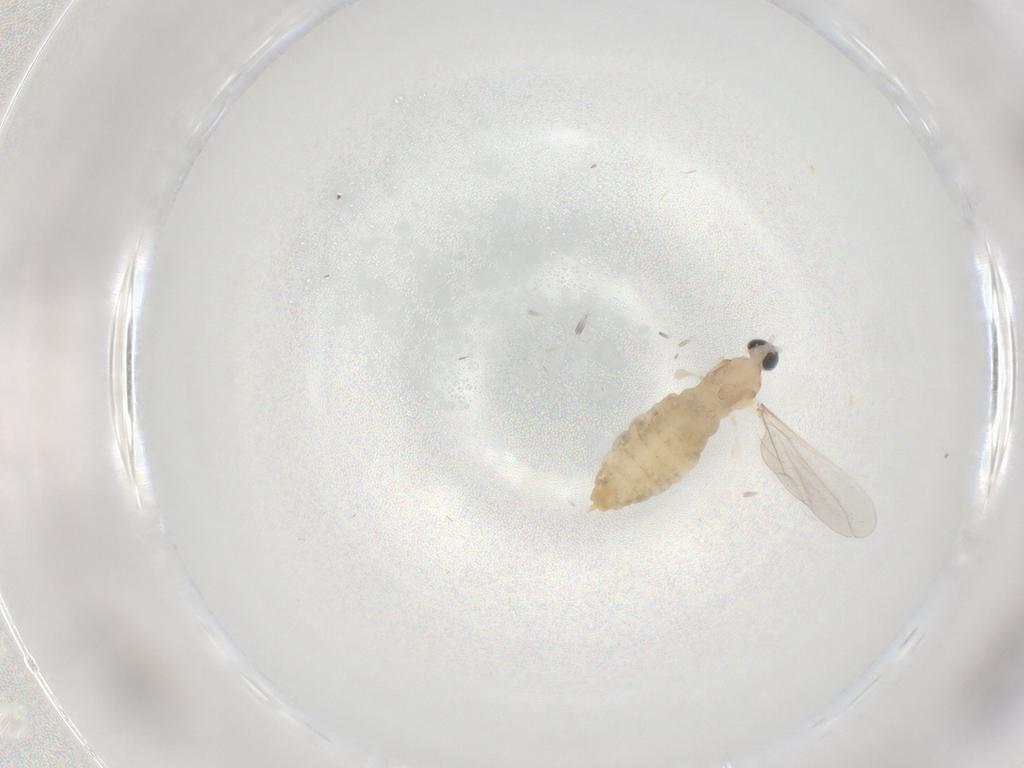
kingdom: Animalia
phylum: Arthropoda
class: Insecta
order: Diptera
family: Cecidomyiidae
